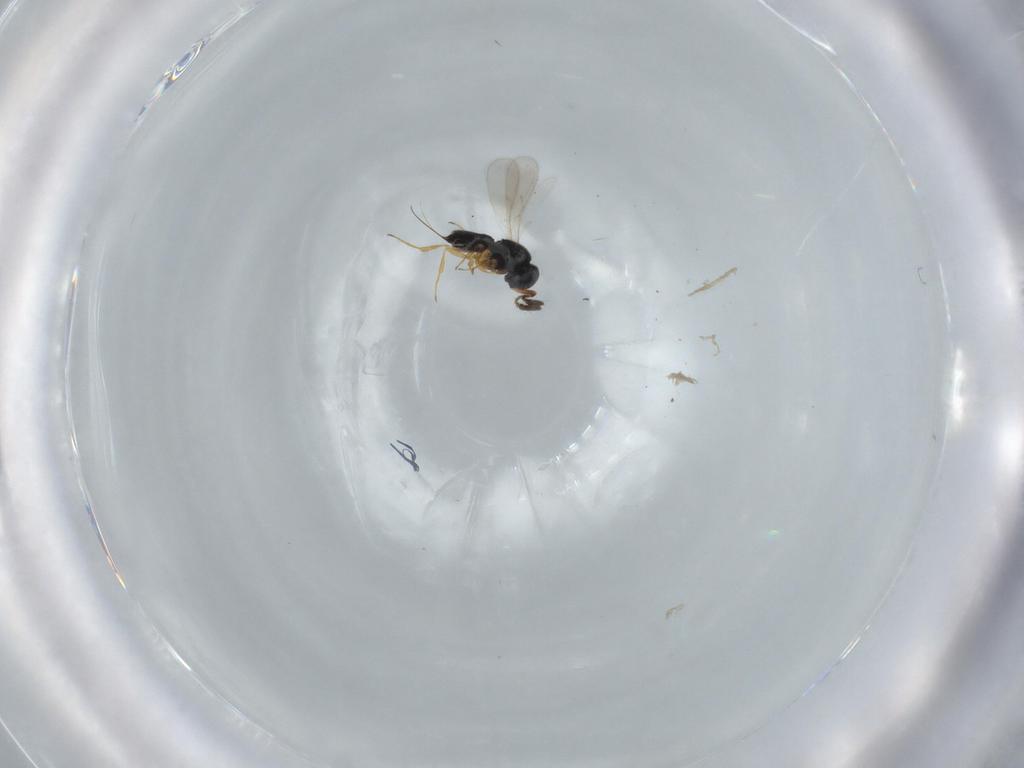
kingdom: Animalia
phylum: Arthropoda
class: Insecta
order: Hymenoptera
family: Scelionidae
